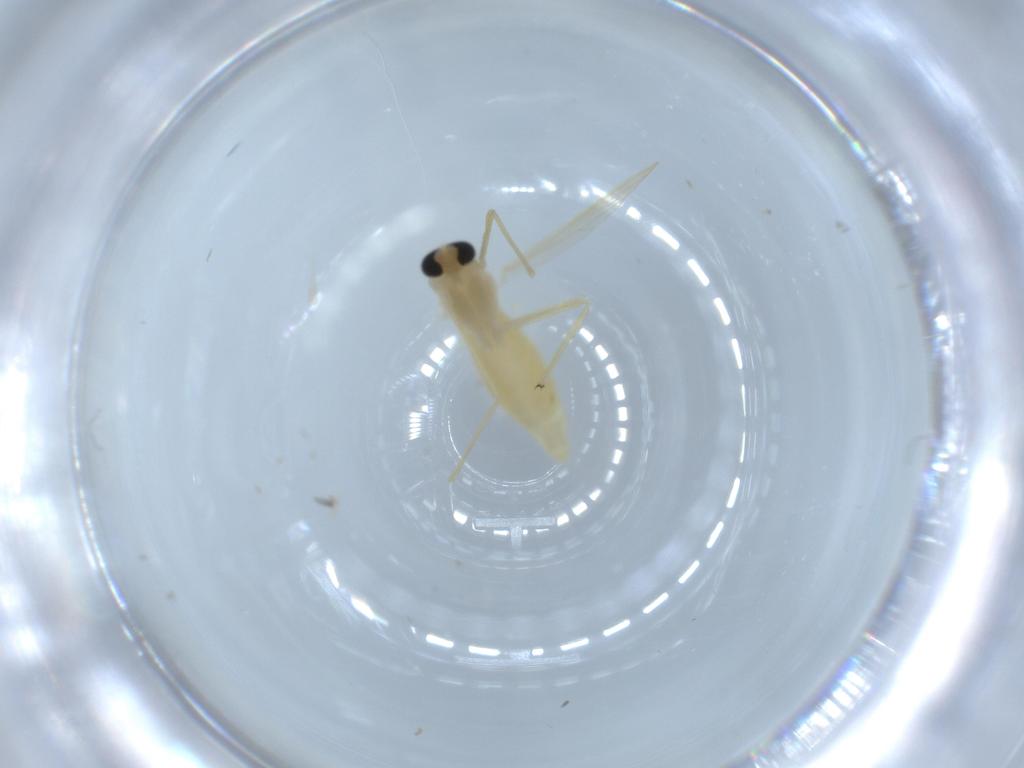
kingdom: Animalia
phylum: Arthropoda
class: Insecta
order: Diptera
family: Chironomidae
